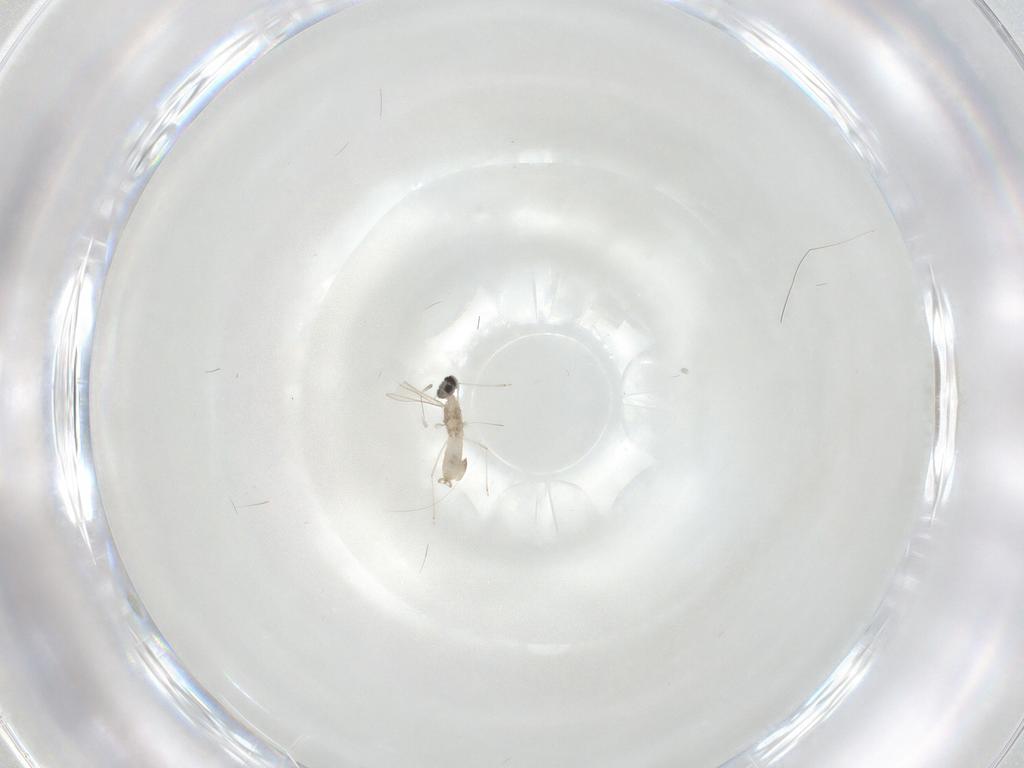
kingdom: Animalia
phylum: Arthropoda
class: Insecta
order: Diptera
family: Cecidomyiidae
